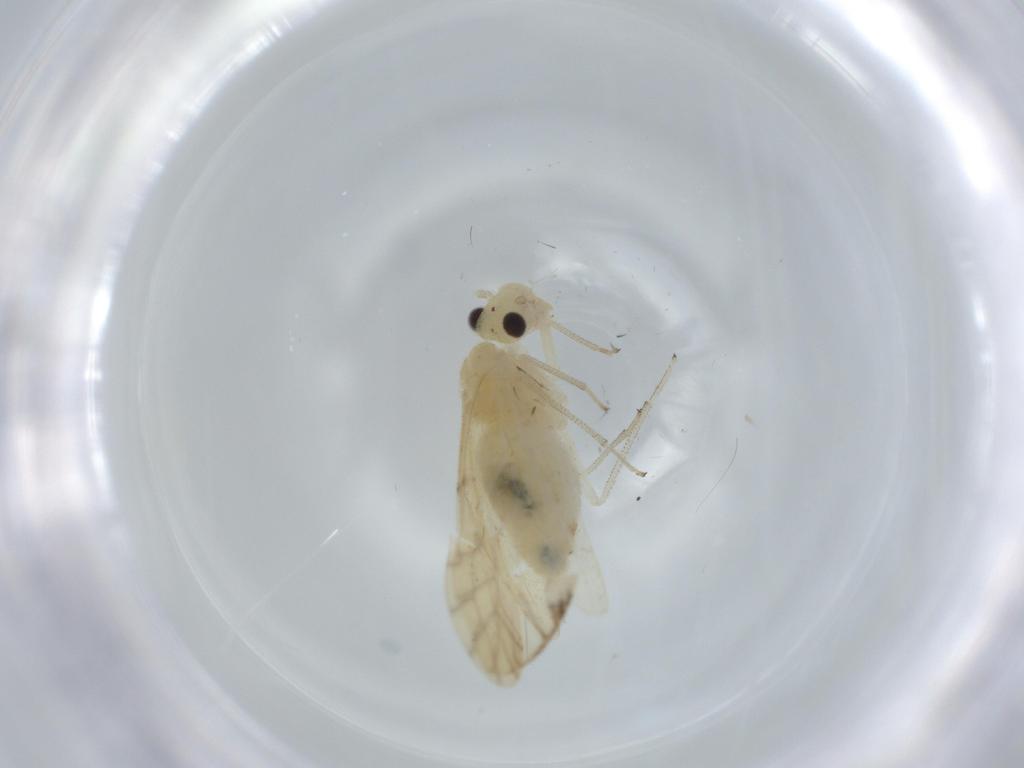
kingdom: Animalia
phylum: Arthropoda
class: Insecta
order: Psocodea
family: Caeciliusidae
